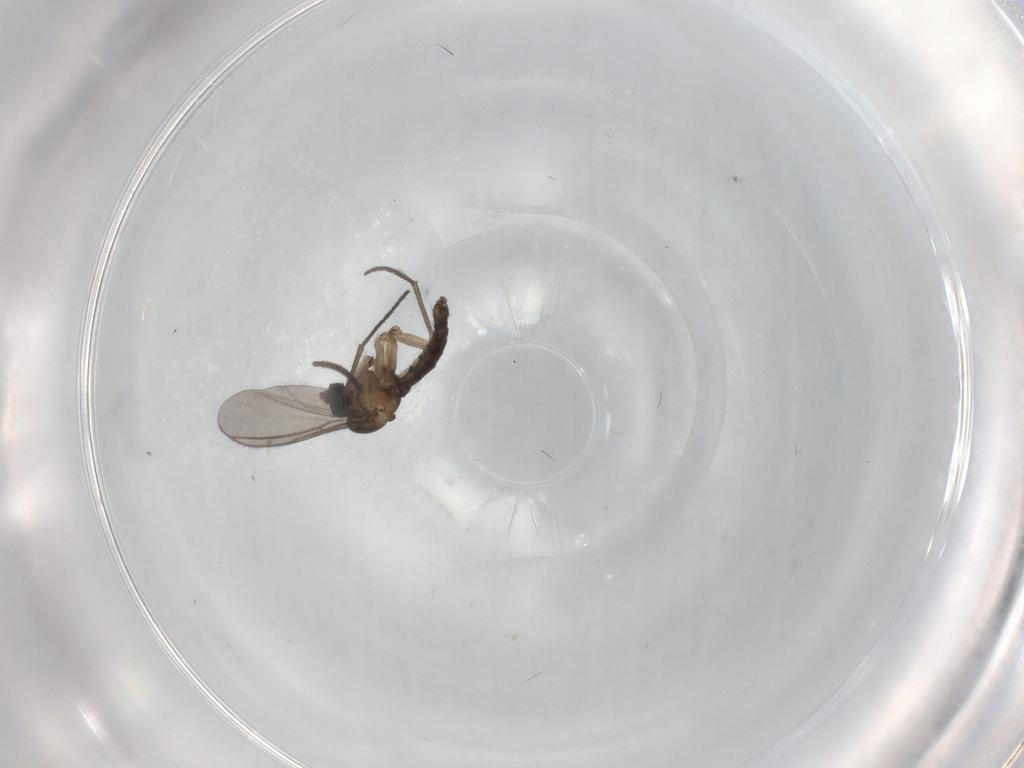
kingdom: Animalia
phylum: Arthropoda
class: Insecta
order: Diptera
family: Sciaridae
